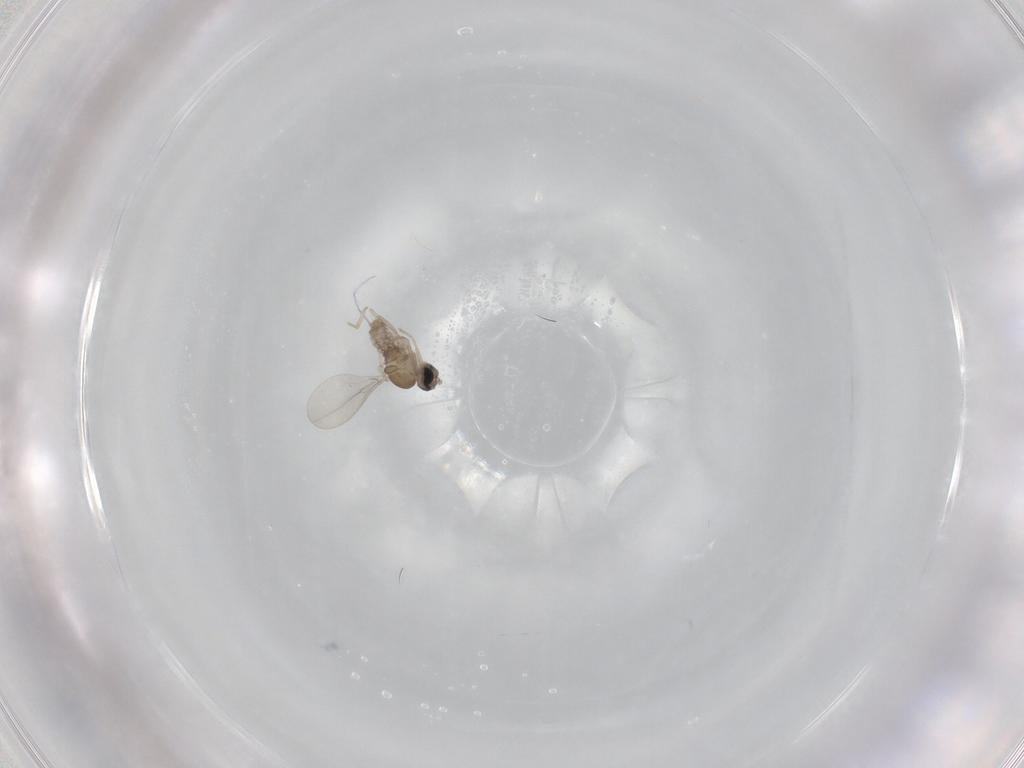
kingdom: Animalia
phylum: Arthropoda
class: Insecta
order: Diptera
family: Cecidomyiidae
